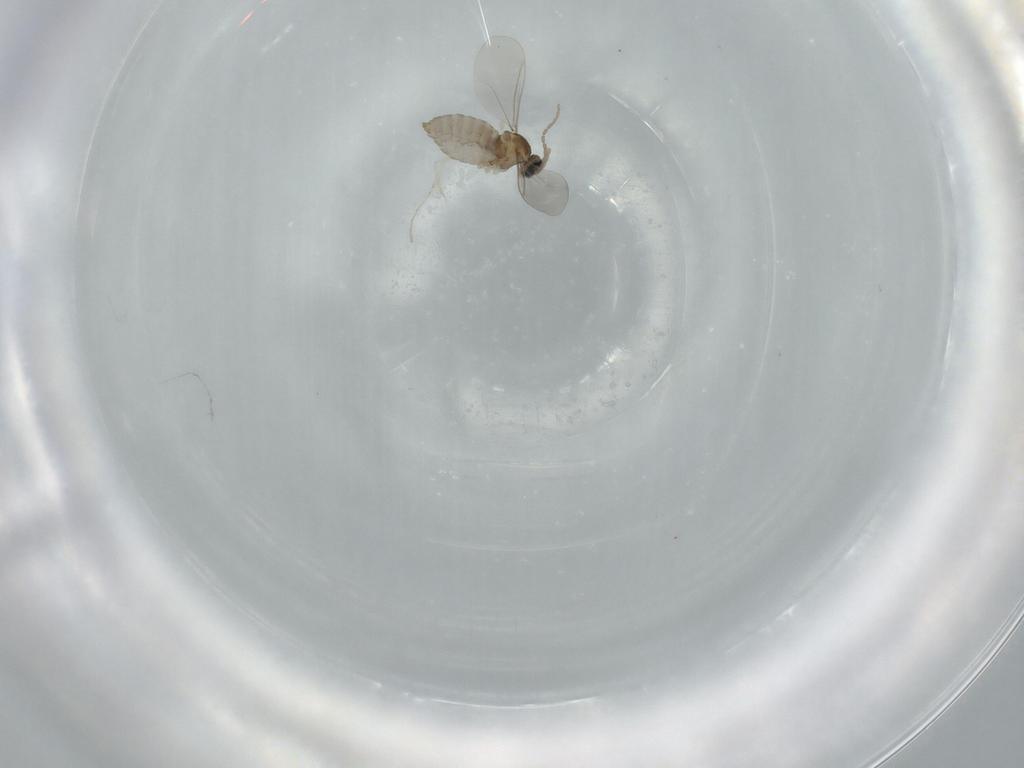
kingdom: Animalia
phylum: Arthropoda
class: Insecta
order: Diptera
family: Cecidomyiidae
